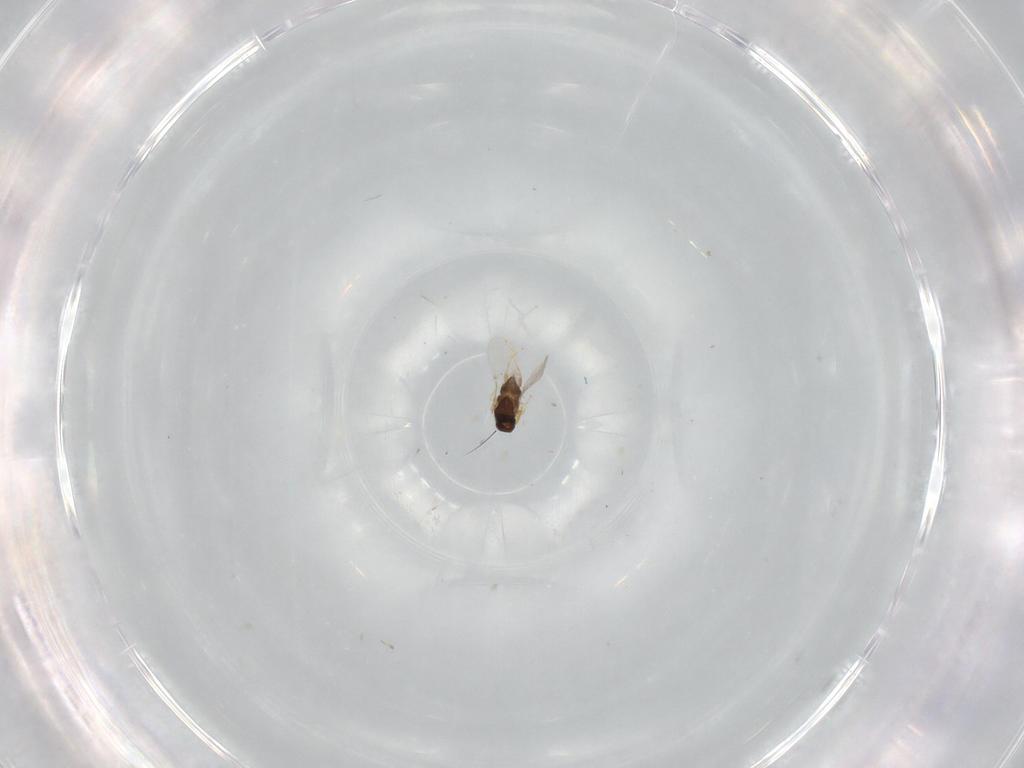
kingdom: Animalia
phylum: Arthropoda
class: Insecta
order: Hymenoptera
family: Encyrtidae
